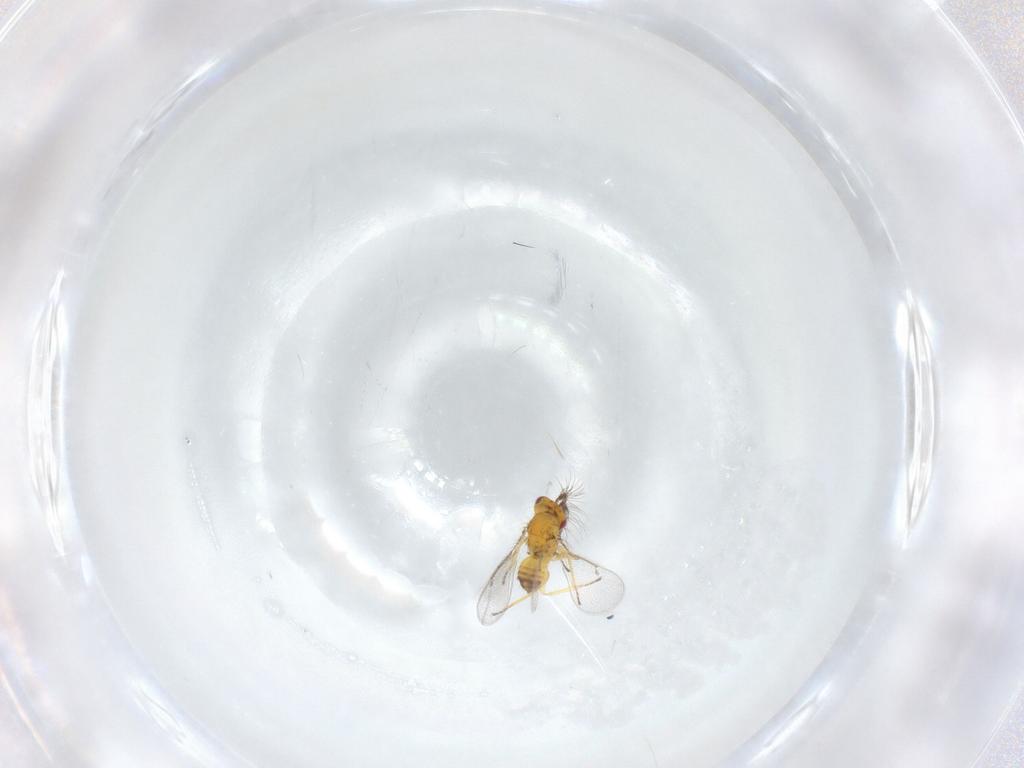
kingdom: Animalia
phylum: Arthropoda
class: Insecta
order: Hymenoptera
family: Eulophidae
